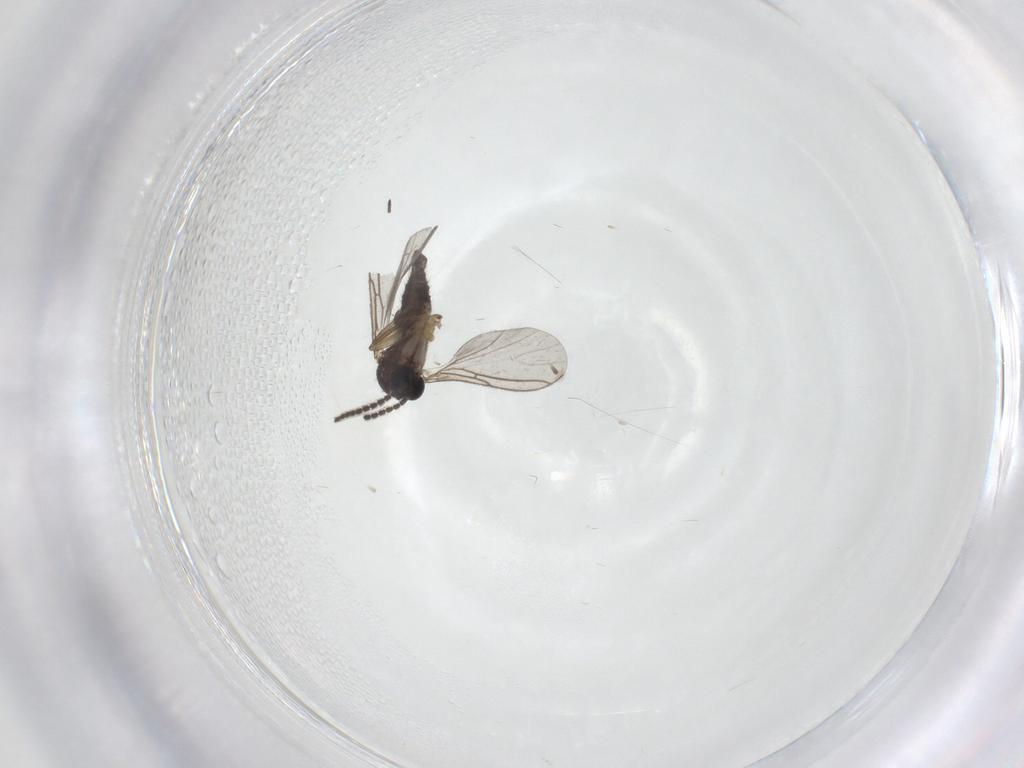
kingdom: Animalia
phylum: Arthropoda
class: Insecta
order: Diptera
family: Sciaridae
